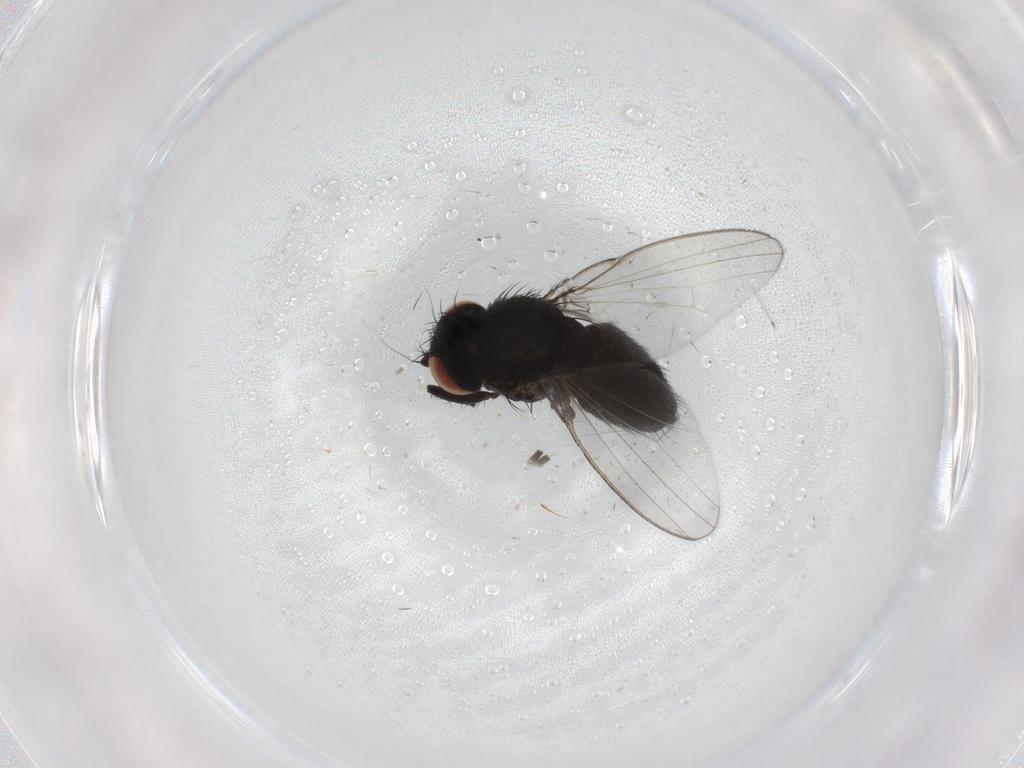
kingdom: Animalia
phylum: Arthropoda
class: Insecta
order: Diptera
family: Milichiidae
